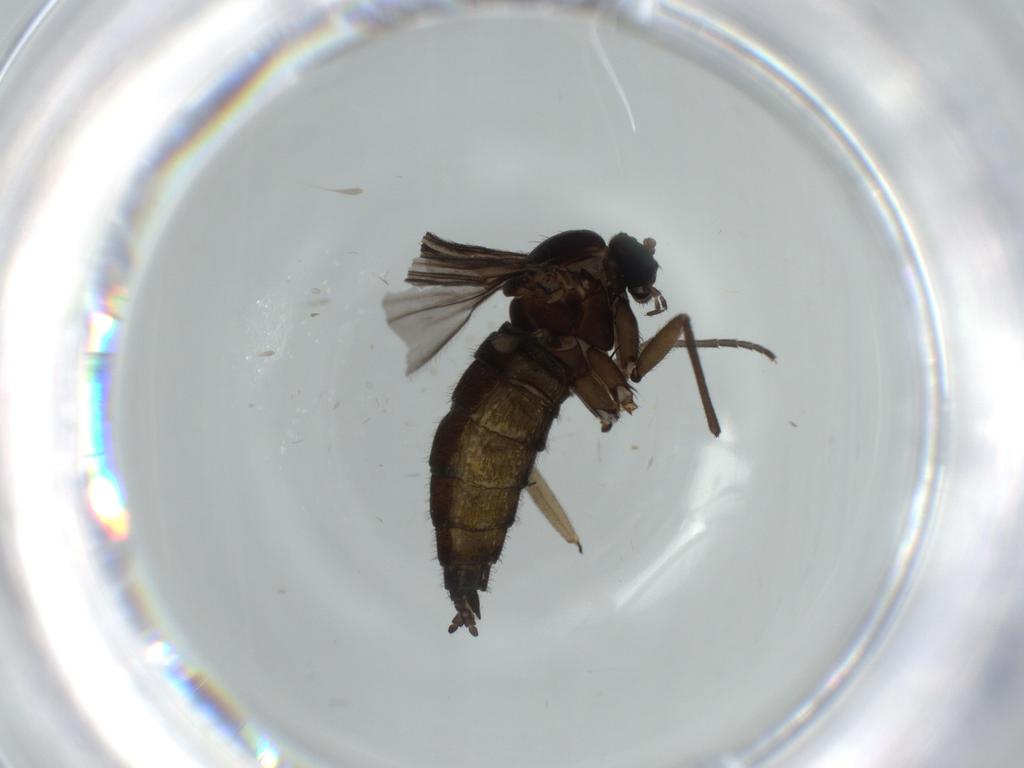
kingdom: Animalia
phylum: Arthropoda
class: Insecta
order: Diptera
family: Sciaridae
